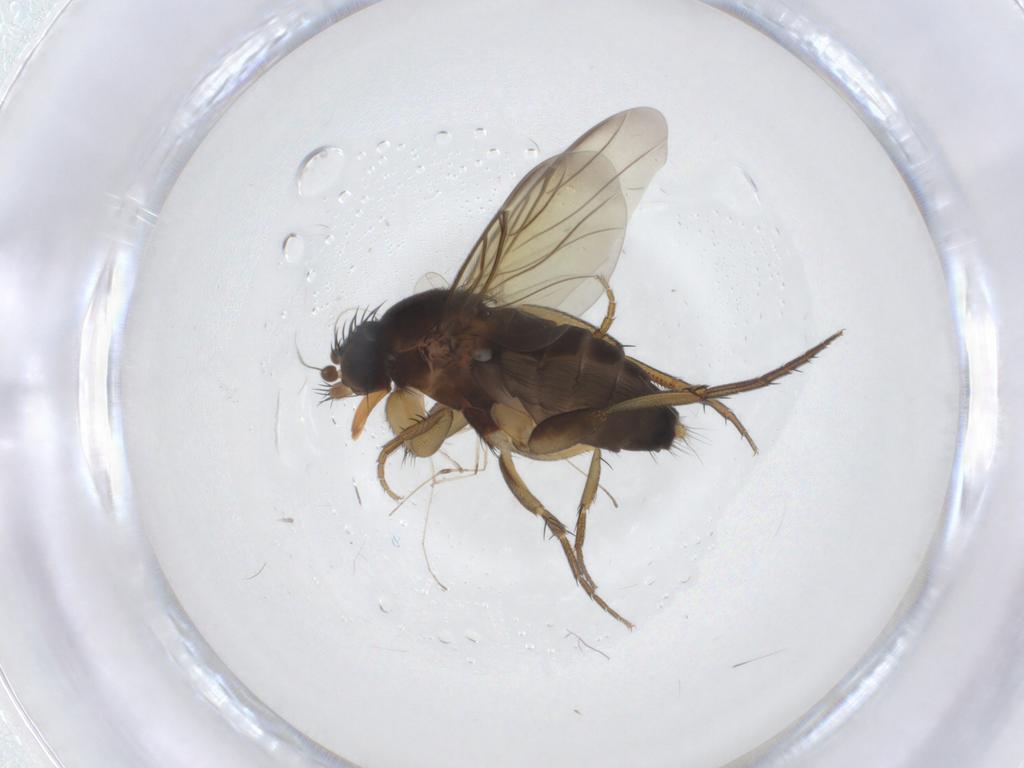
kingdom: Animalia
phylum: Arthropoda
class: Insecta
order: Diptera
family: Cecidomyiidae
